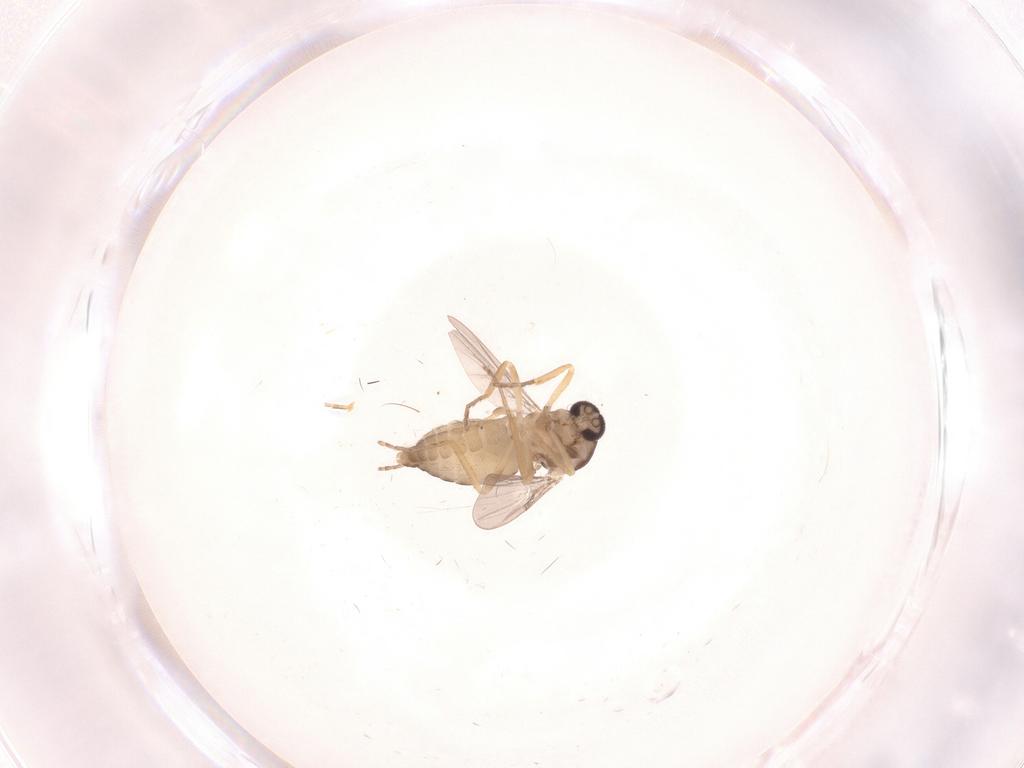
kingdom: Animalia
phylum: Arthropoda
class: Insecta
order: Diptera
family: Ceratopogonidae
